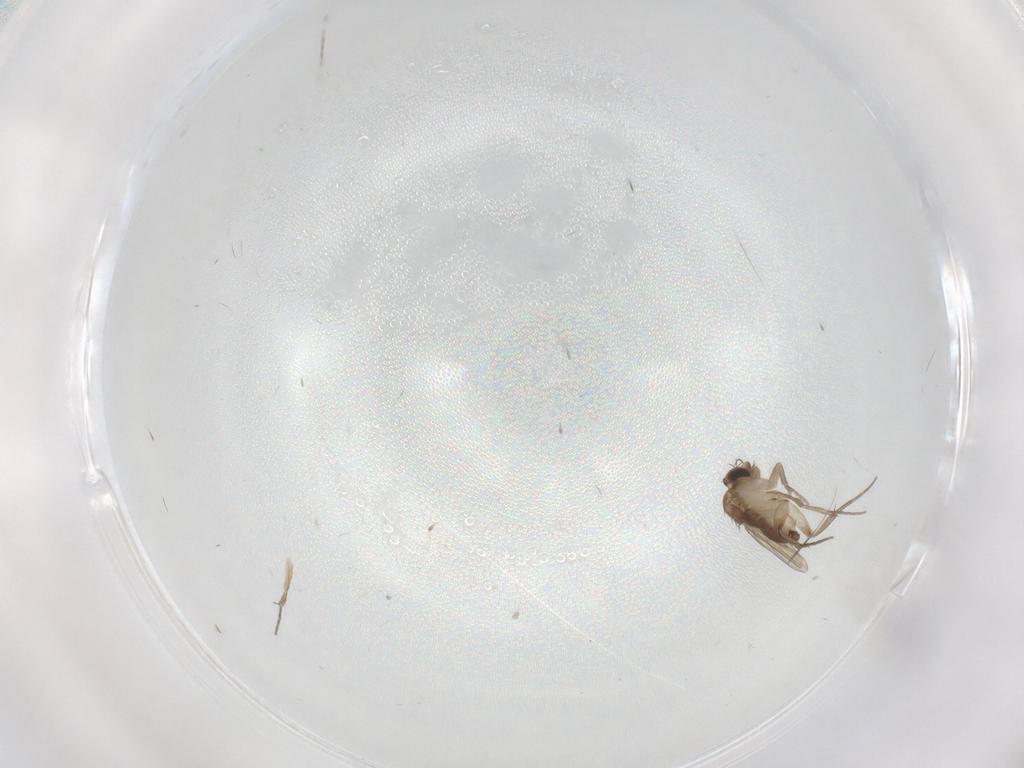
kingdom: Animalia
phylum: Arthropoda
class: Insecta
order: Diptera
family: Phoridae
